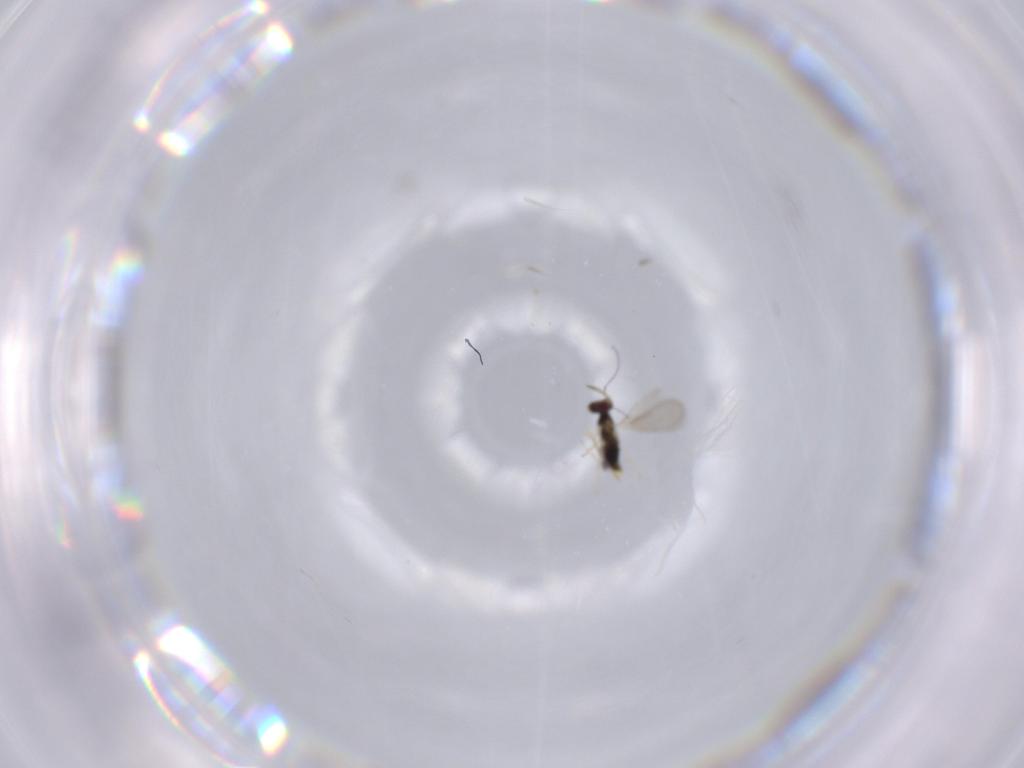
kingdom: Animalia
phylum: Arthropoda
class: Insecta
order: Hymenoptera
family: Aphelinidae
